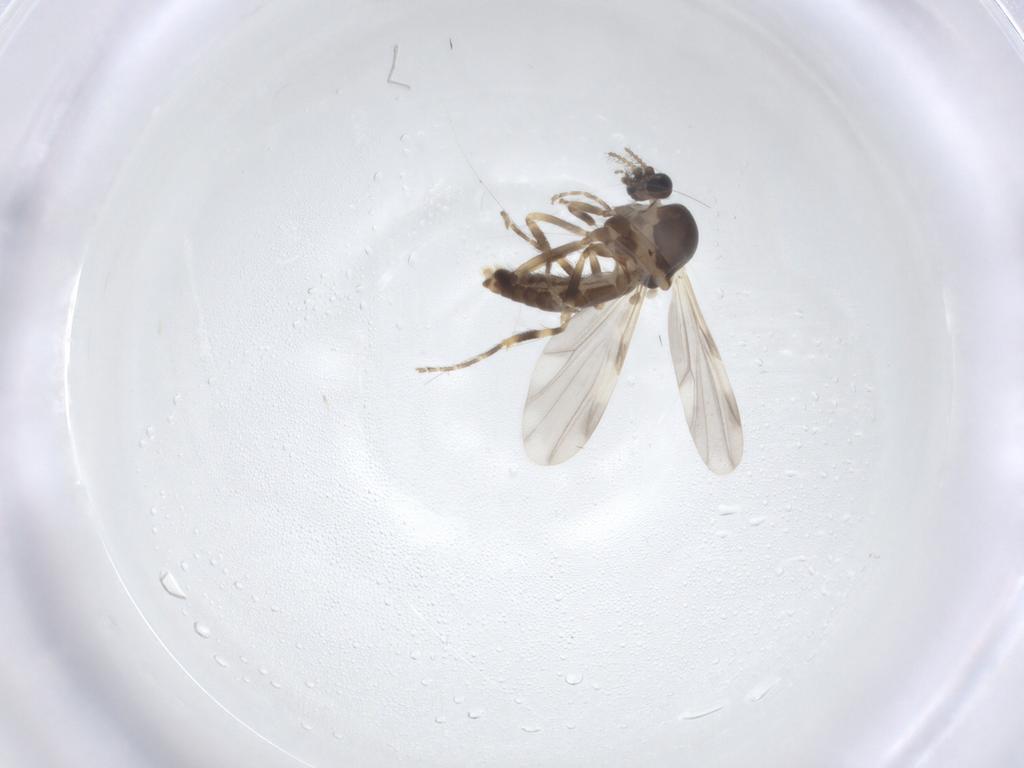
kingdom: Animalia
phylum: Arthropoda
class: Insecta
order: Diptera
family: Ceratopogonidae
